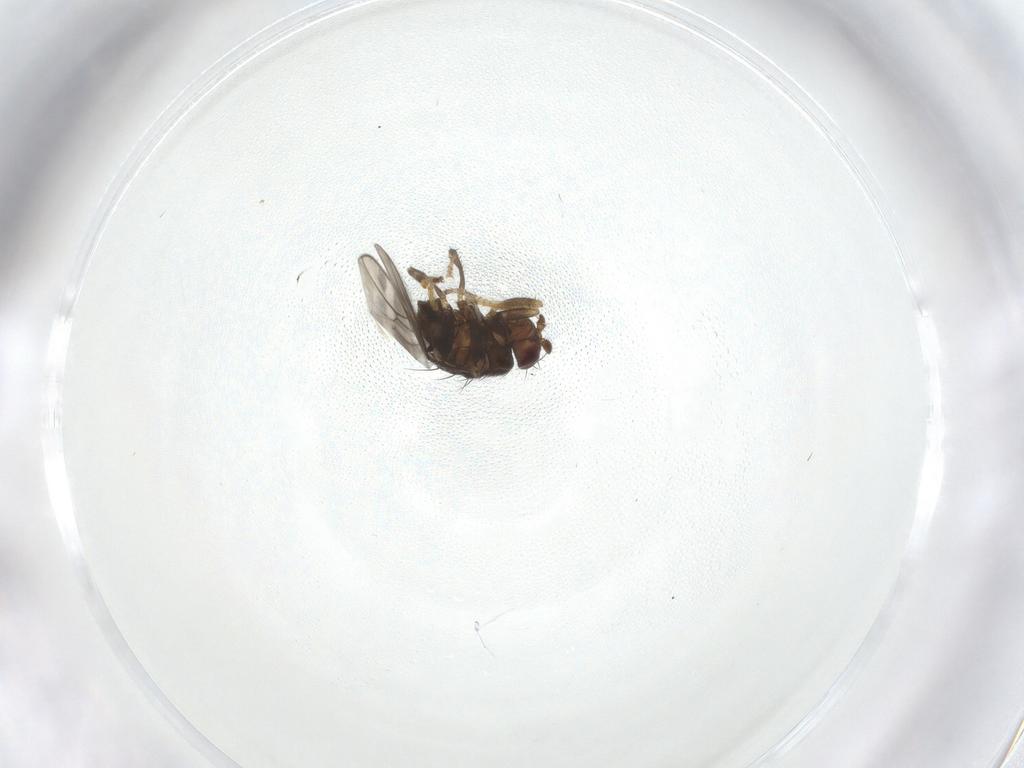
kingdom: Animalia
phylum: Arthropoda
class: Insecta
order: Diptera
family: Sphaeroceridae
